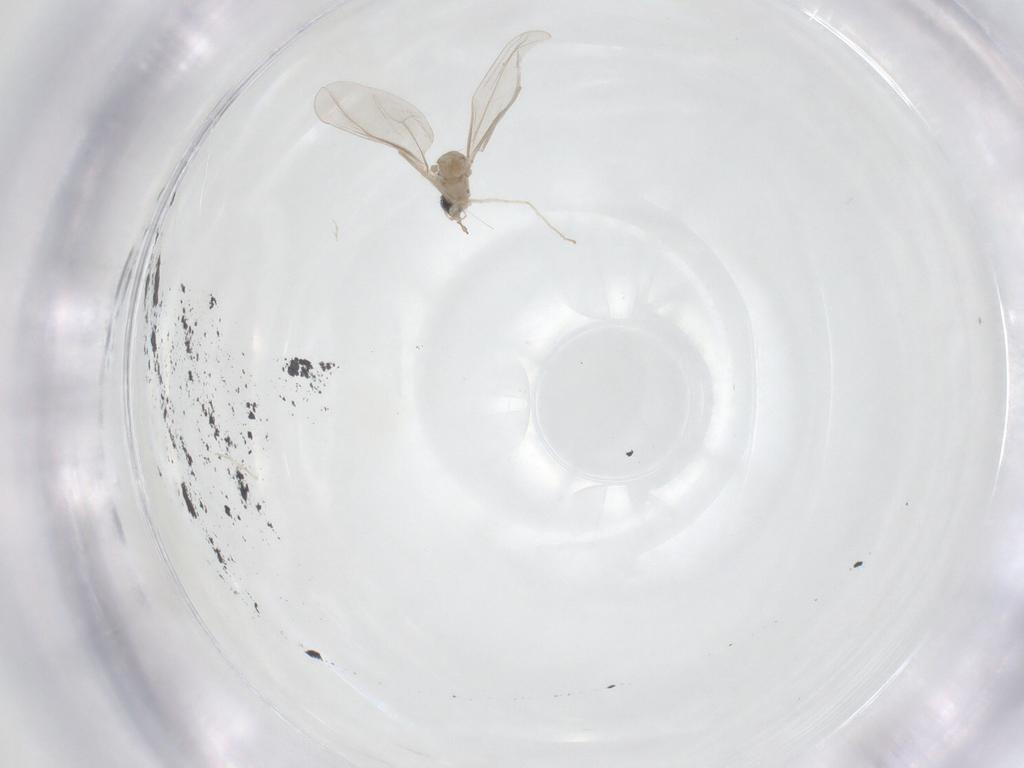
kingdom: Animalia
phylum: Arthropoda
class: Insecta
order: Diptera
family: Cecidomyiidae
